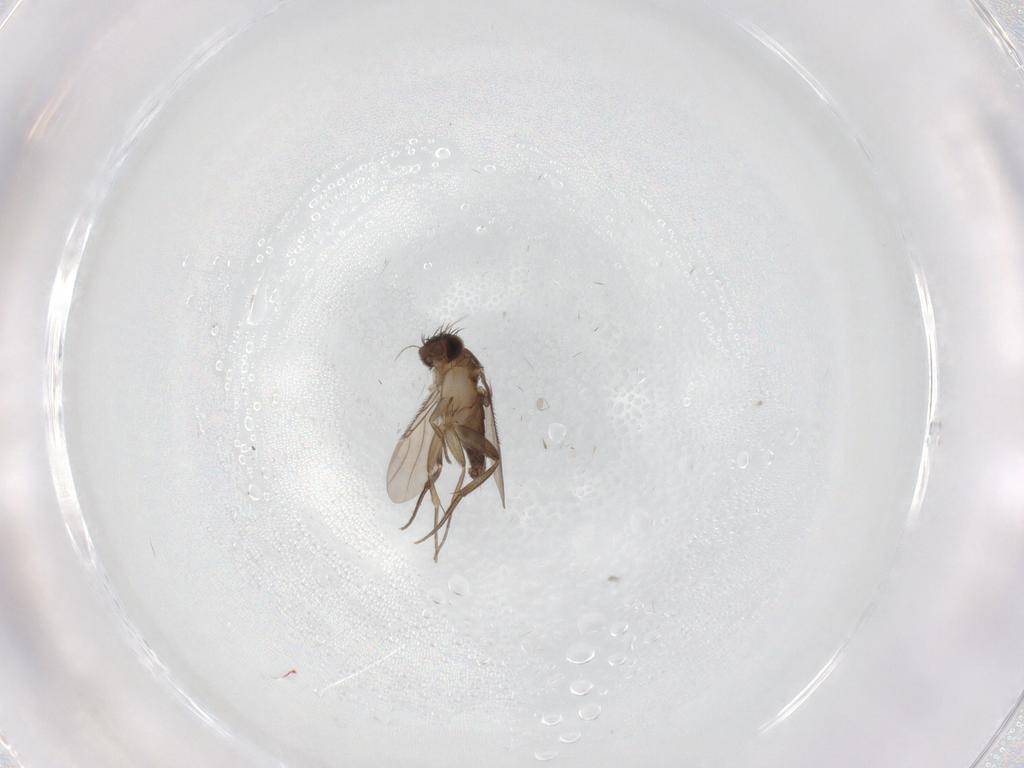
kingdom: Animalia
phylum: Arthropoda
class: Insecta
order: Diptera
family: Phoridae
